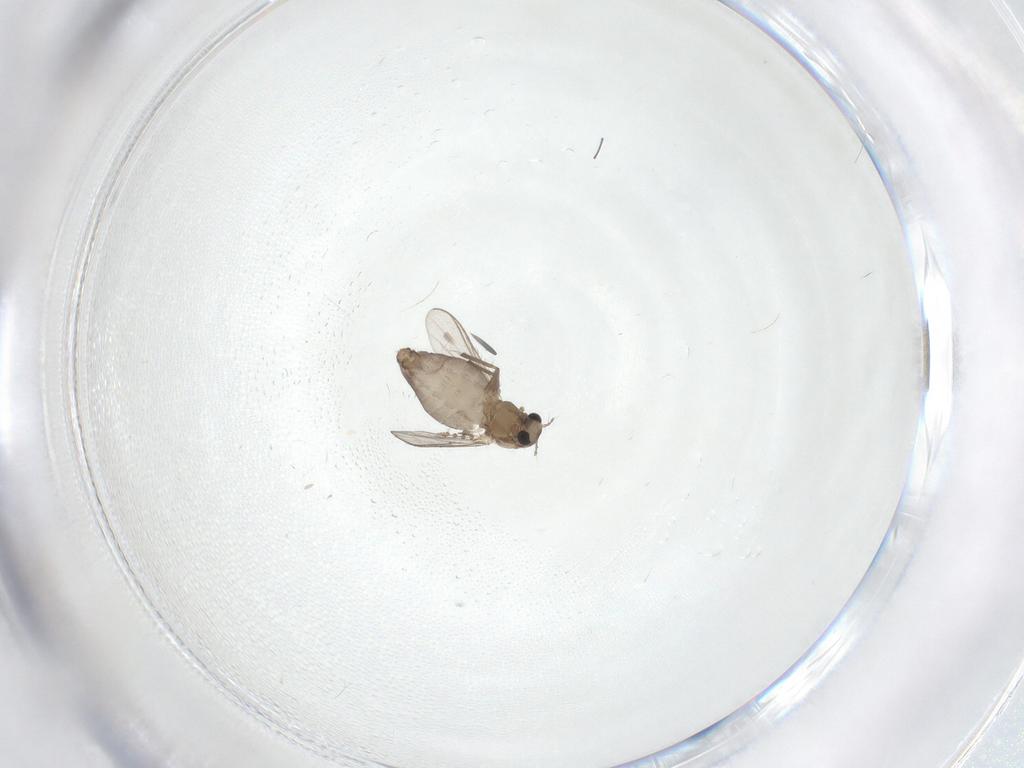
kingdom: Animalia
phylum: Arthropoda
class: Insecta
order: Diptera
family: Chironomidae
